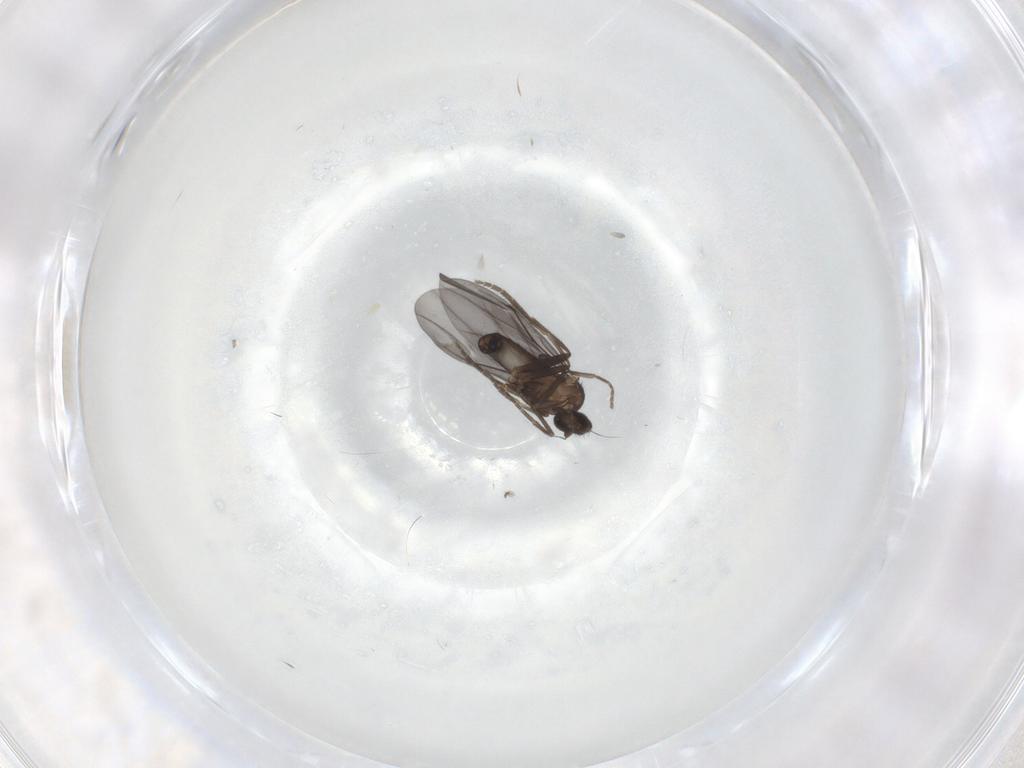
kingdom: Animalia
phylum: Arthropoda
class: Insecta
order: Diptera
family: Phoridae
